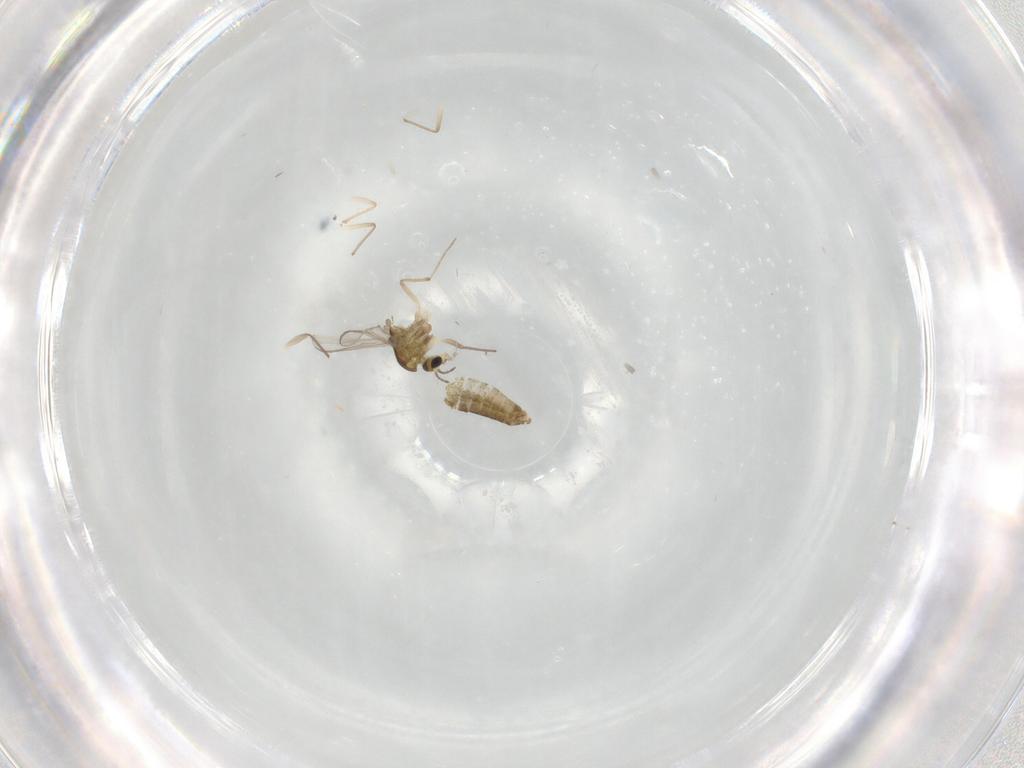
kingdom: Animalia
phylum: Arthropoda
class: Insecta
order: Diptera
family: Chironomidae
